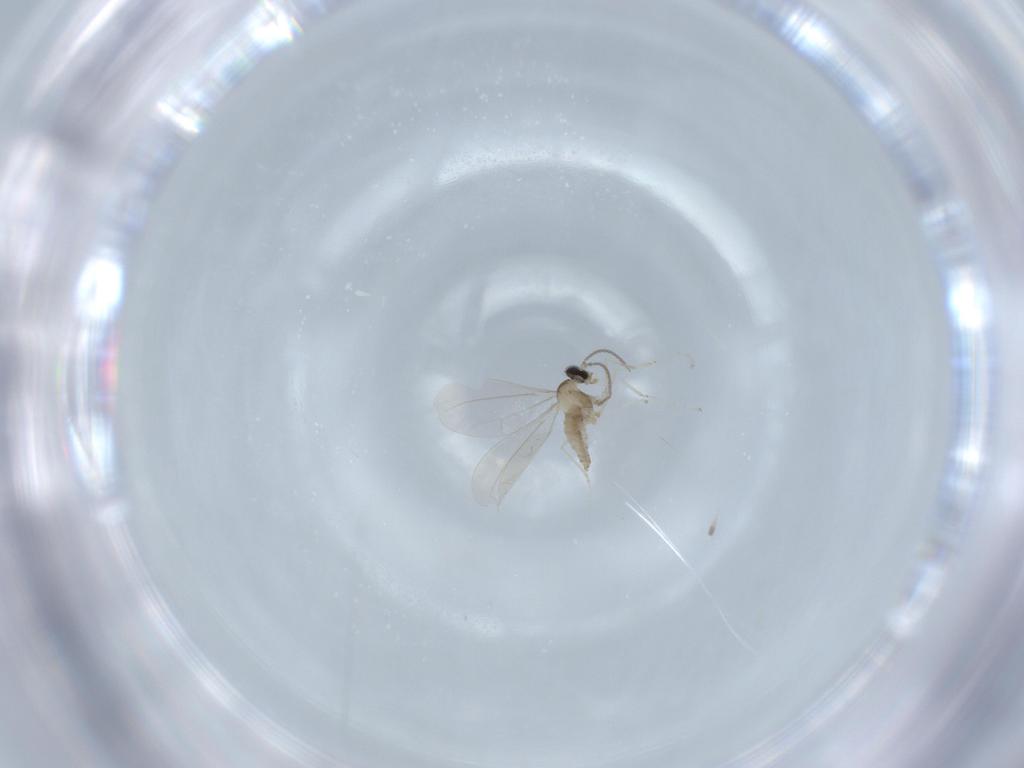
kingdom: Animalia
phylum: Arthropoda
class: Insecta
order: Diptera
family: Cecidomyiidae
